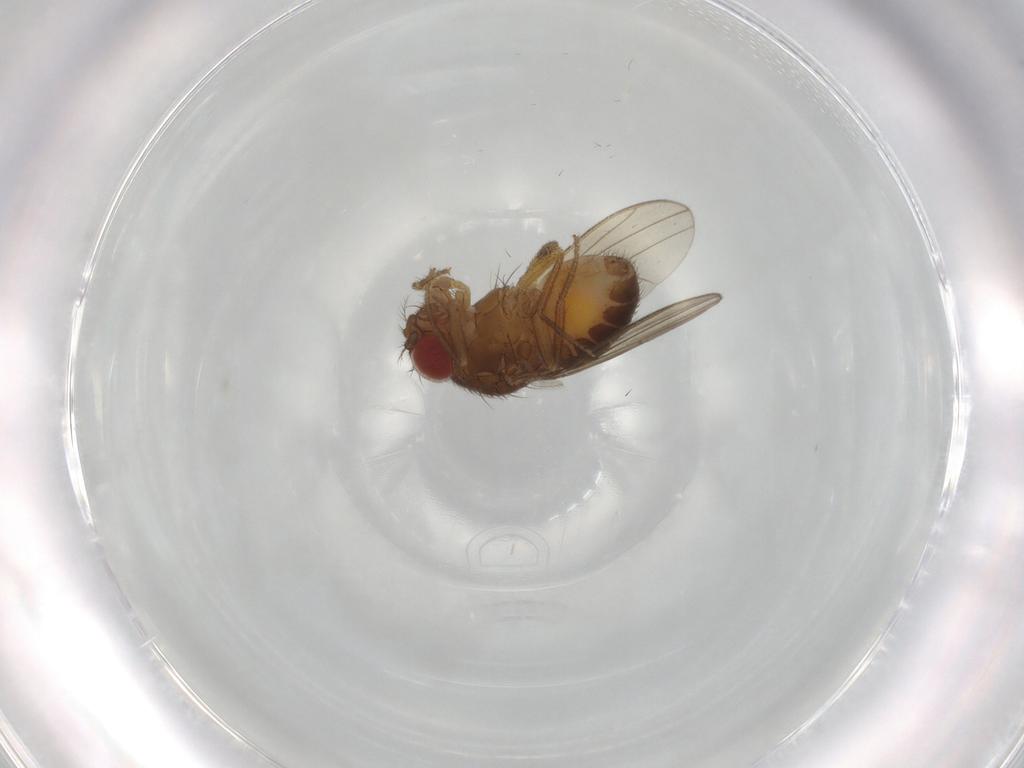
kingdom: Animalia
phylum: Arthropoda
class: Insecta
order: Diptera
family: Drosophilidae
